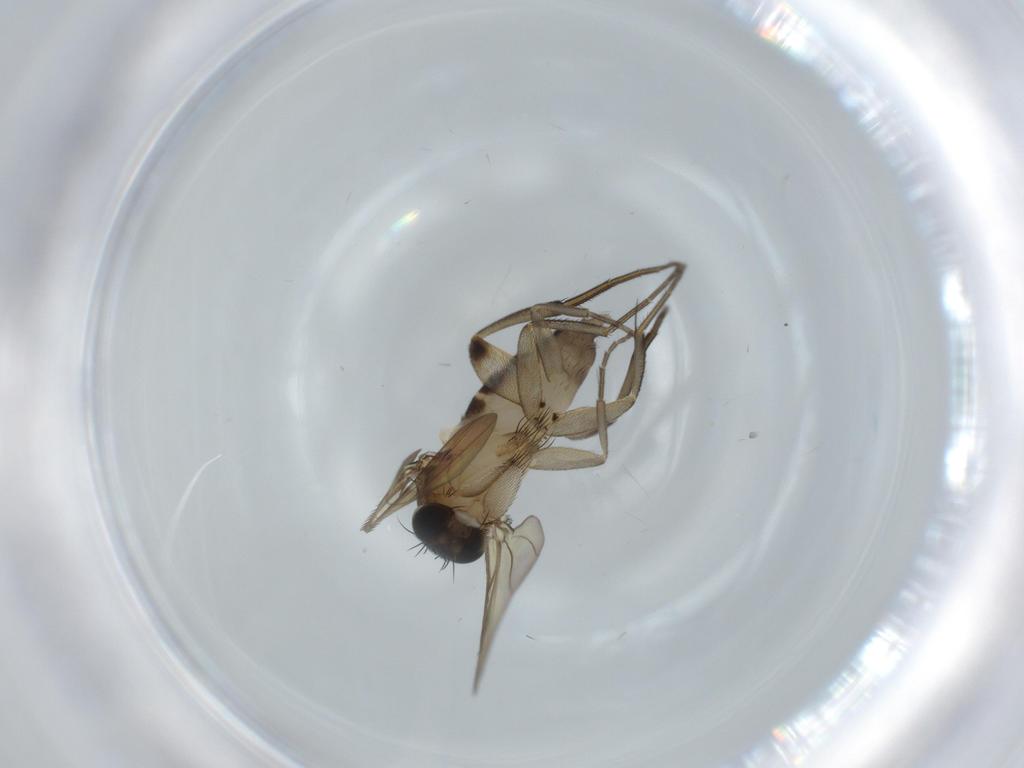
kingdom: Animalia
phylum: Arthropoda
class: Insecta
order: Diptera
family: Phoridae
